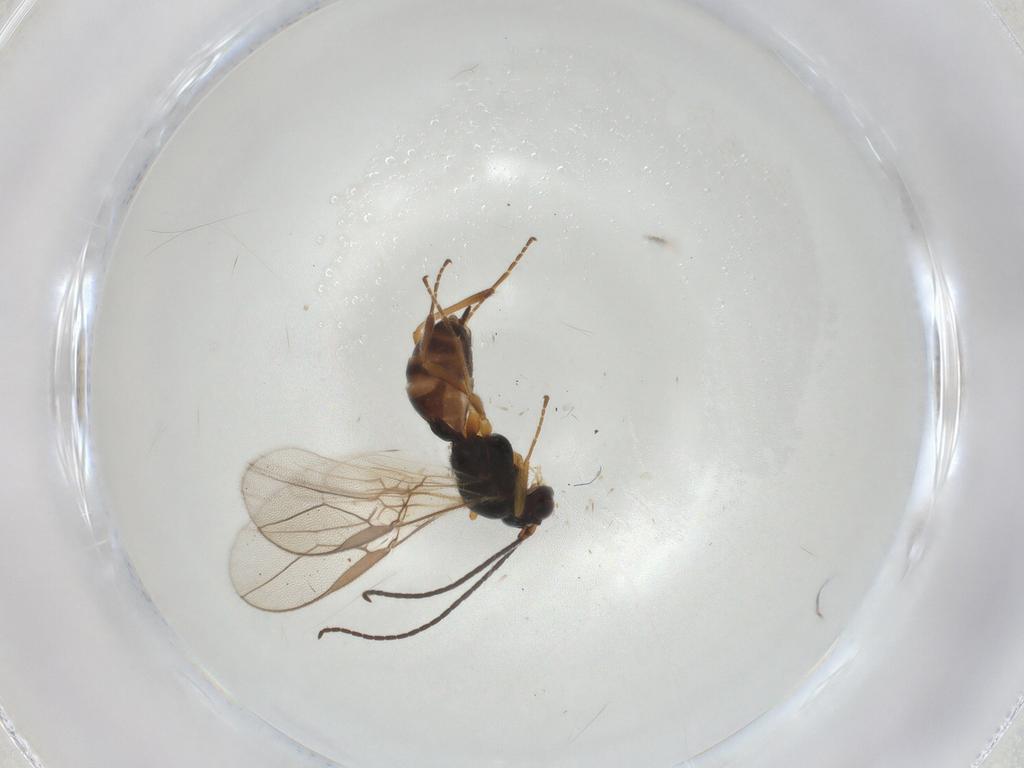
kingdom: Animalia
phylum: Arthropoda
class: Insecta
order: Hymenoptera
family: Braconidae
